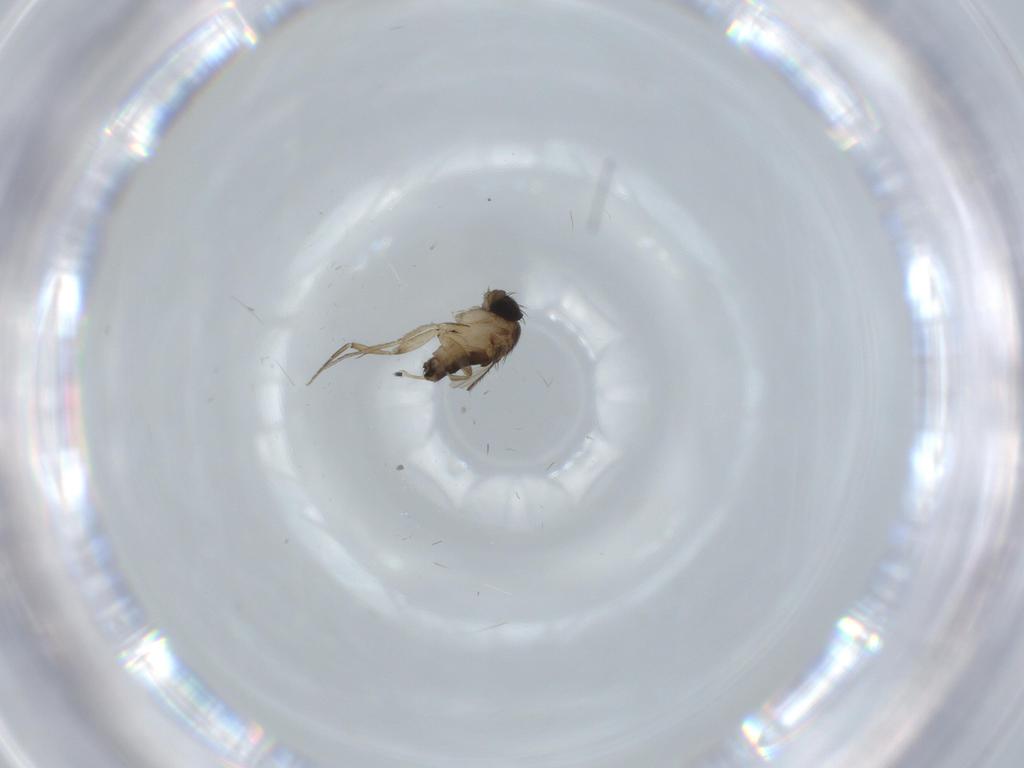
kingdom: Animalia
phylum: Arthropoda
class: Insecta
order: Diptera
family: Phoridae
